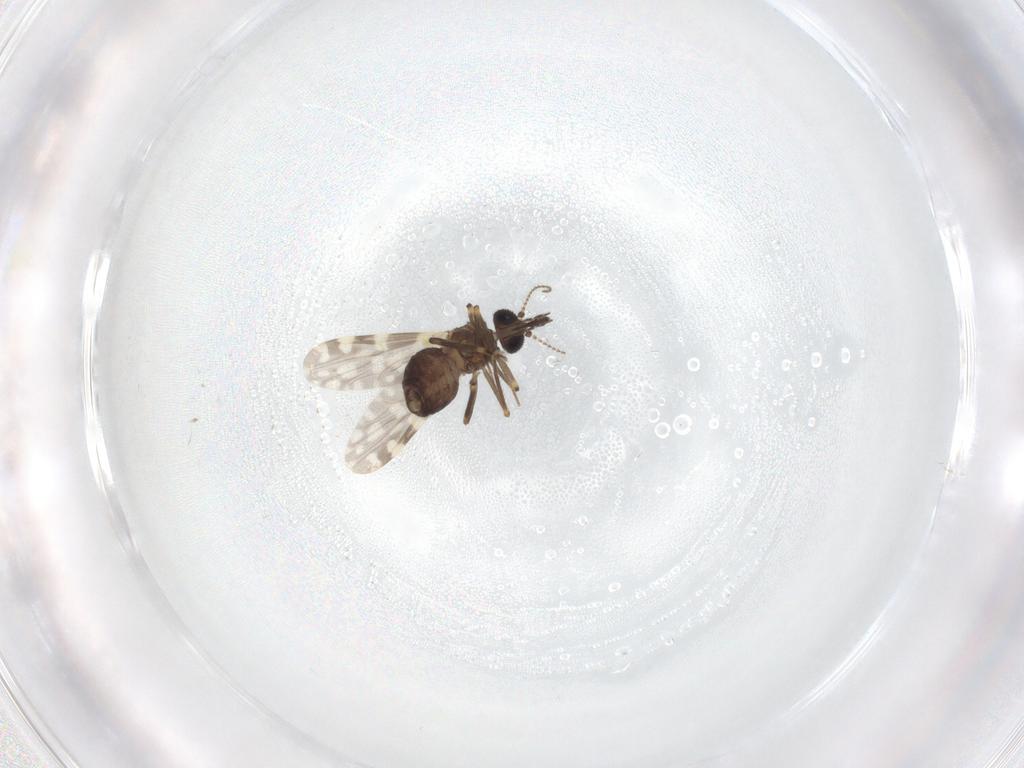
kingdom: Animalia
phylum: Arthropoda
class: Insecta
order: Diptera
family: Ceratopogonidae
